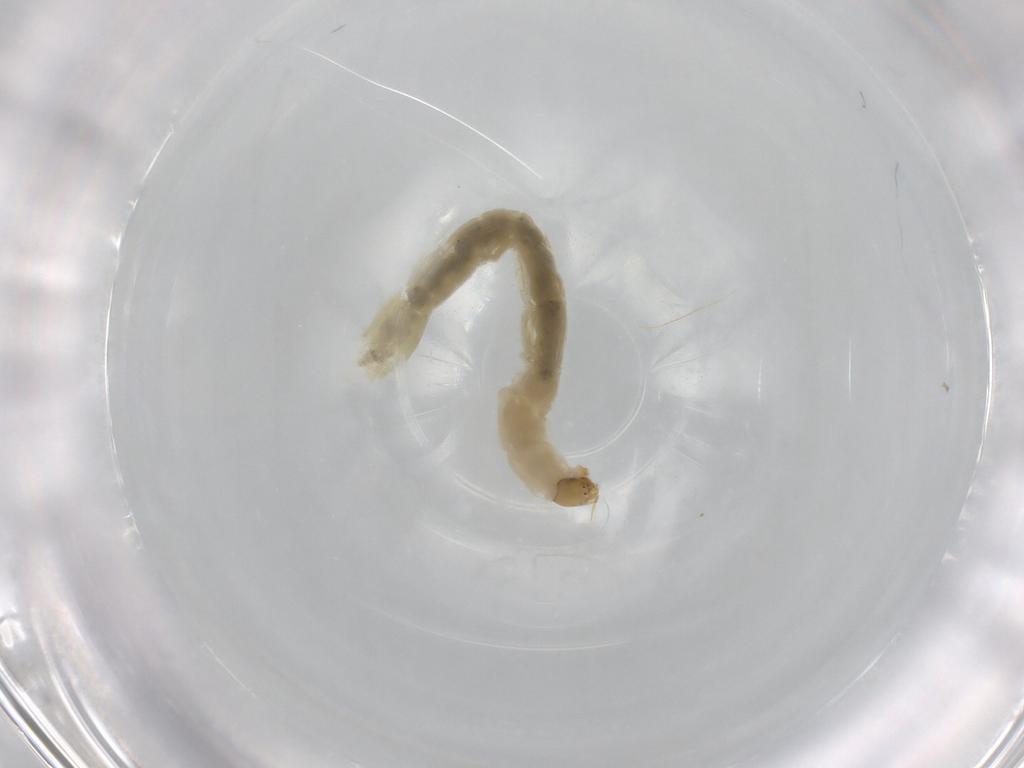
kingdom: Animalia
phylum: Arthropoda
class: Insecta
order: Diptera
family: Chironomidae
